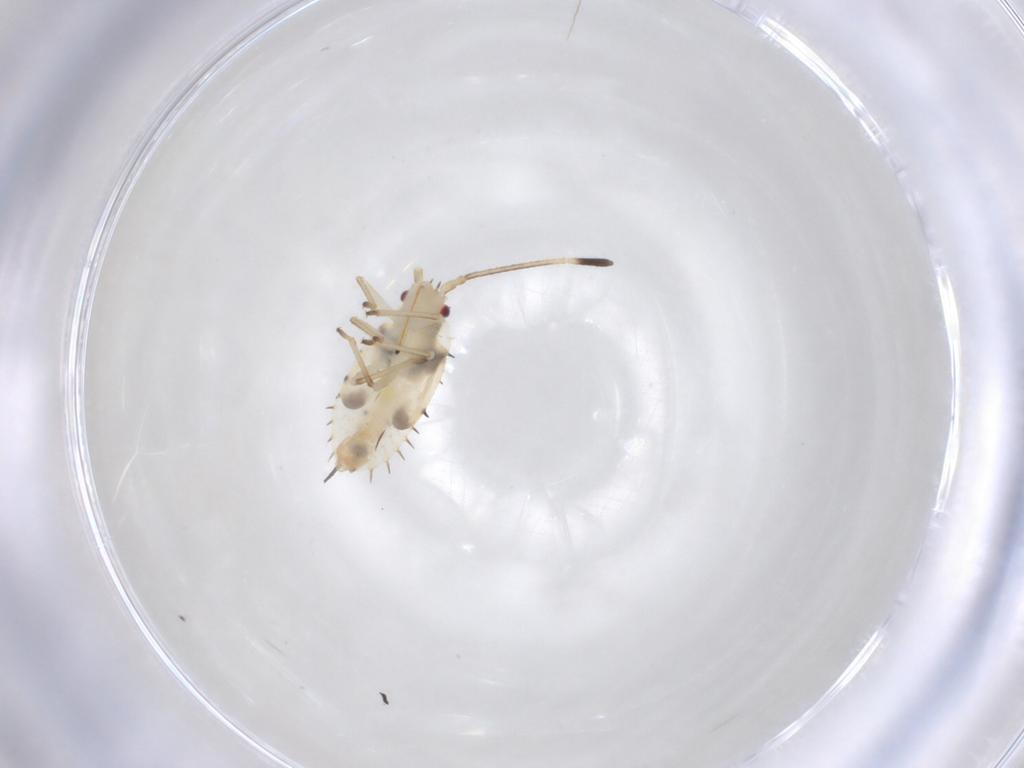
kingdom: Animalia
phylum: Arthropoda
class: Insecta
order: Hemiptera
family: Tingidae
